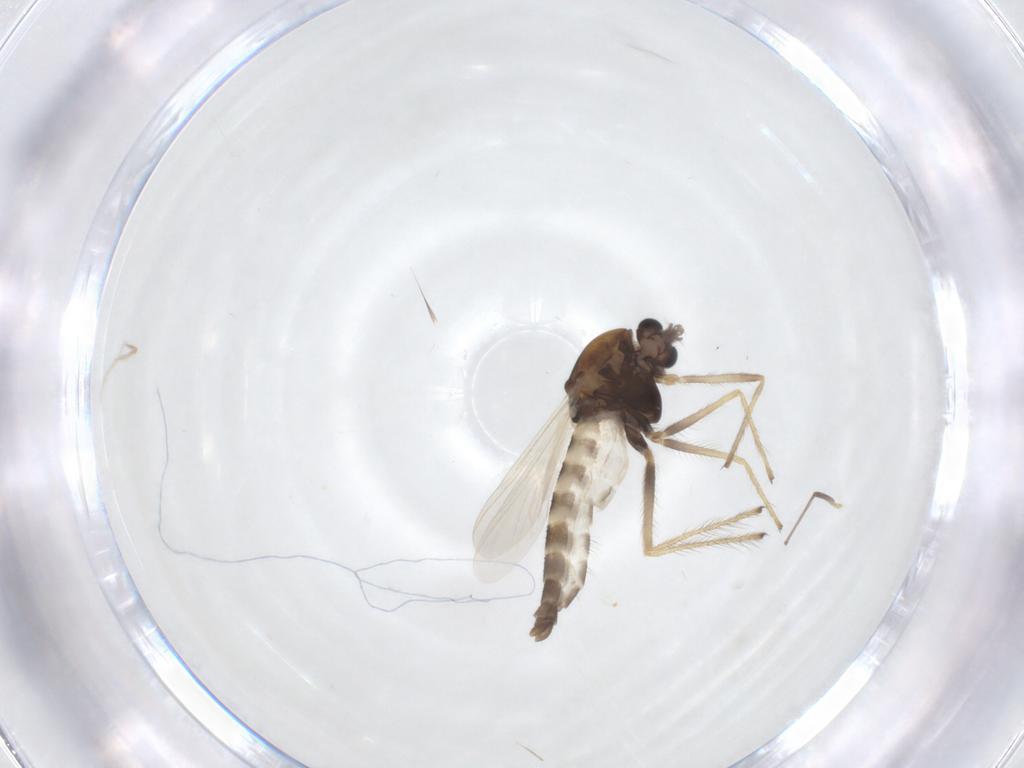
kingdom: Animalia
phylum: Arthropoda
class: Insecta
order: Diptera
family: Chironomidae
